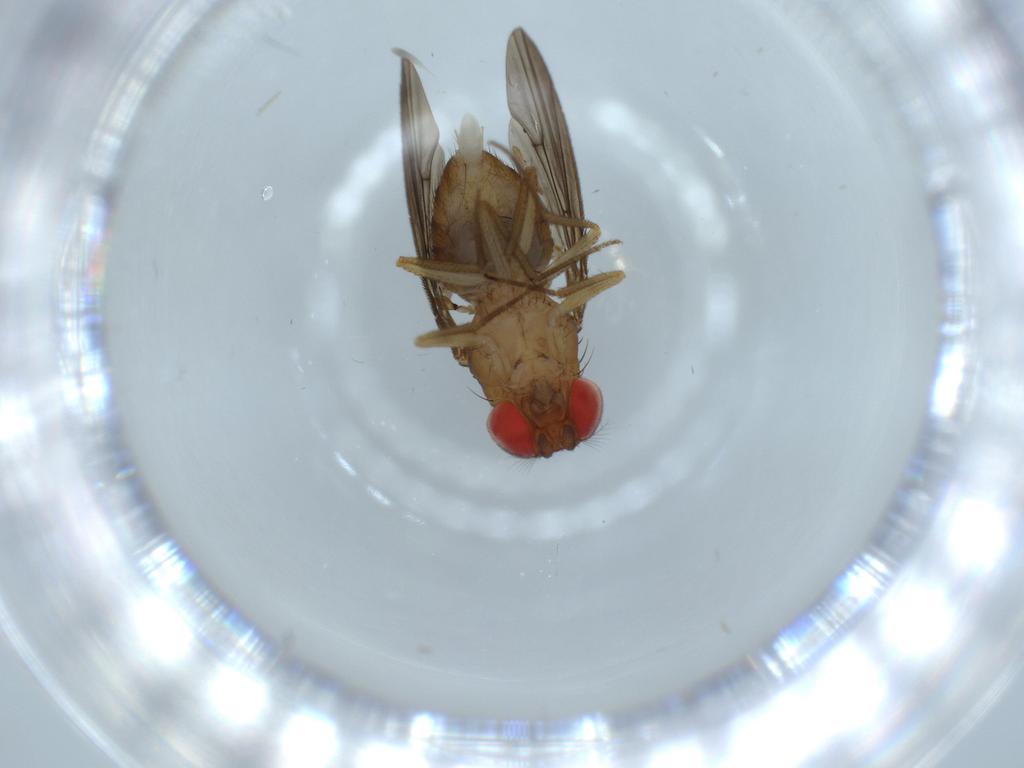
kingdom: Animalia
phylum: Arthropoda
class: Insecta
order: Diptera
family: Drosophilidae
